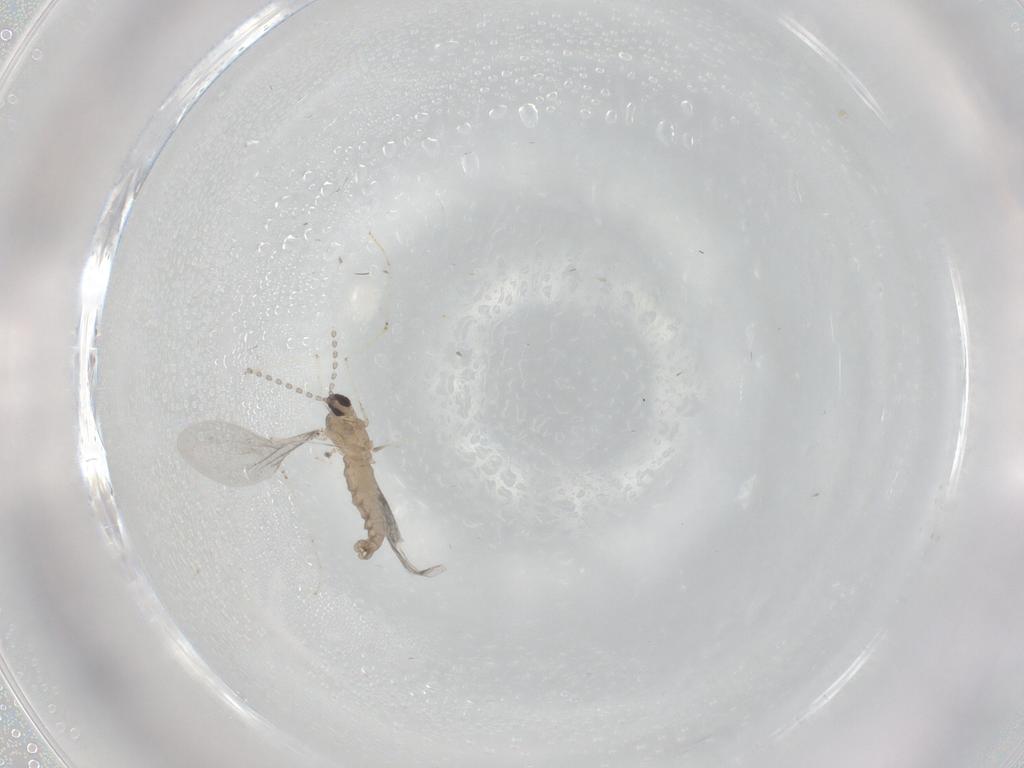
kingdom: Animalia
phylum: Arthropoda
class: Insecta
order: Diptera
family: Cecidomyiidae
